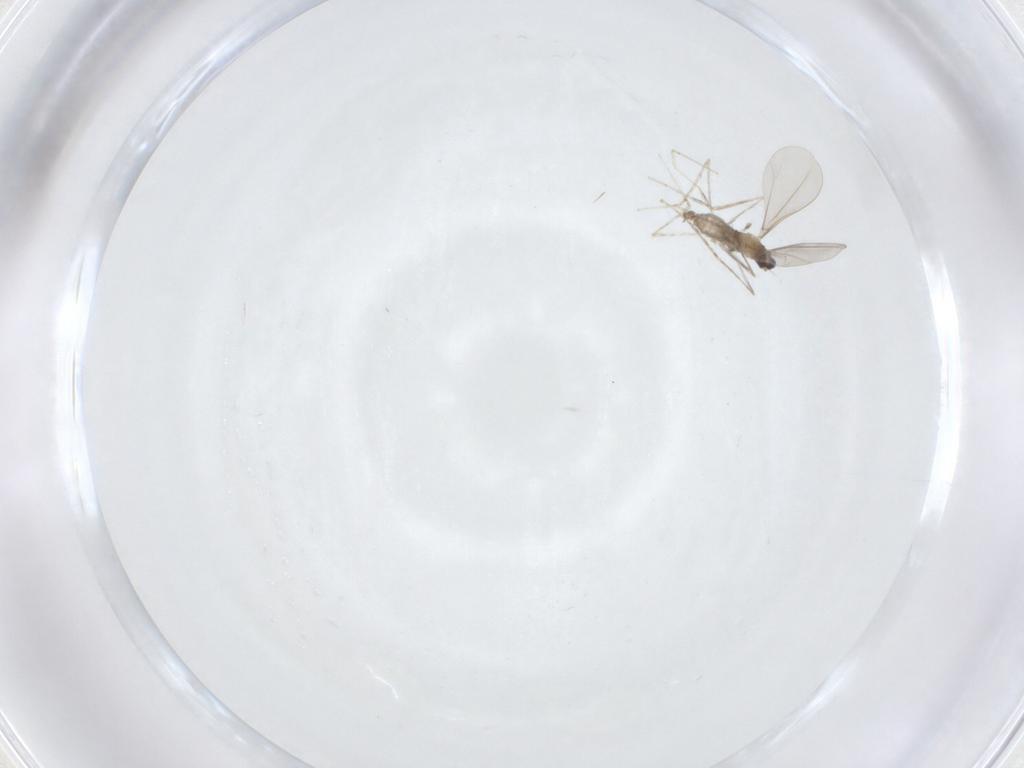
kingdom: Animalia
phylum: Arthropoda
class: Insecta
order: Diptera
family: Cecidomyiidae
